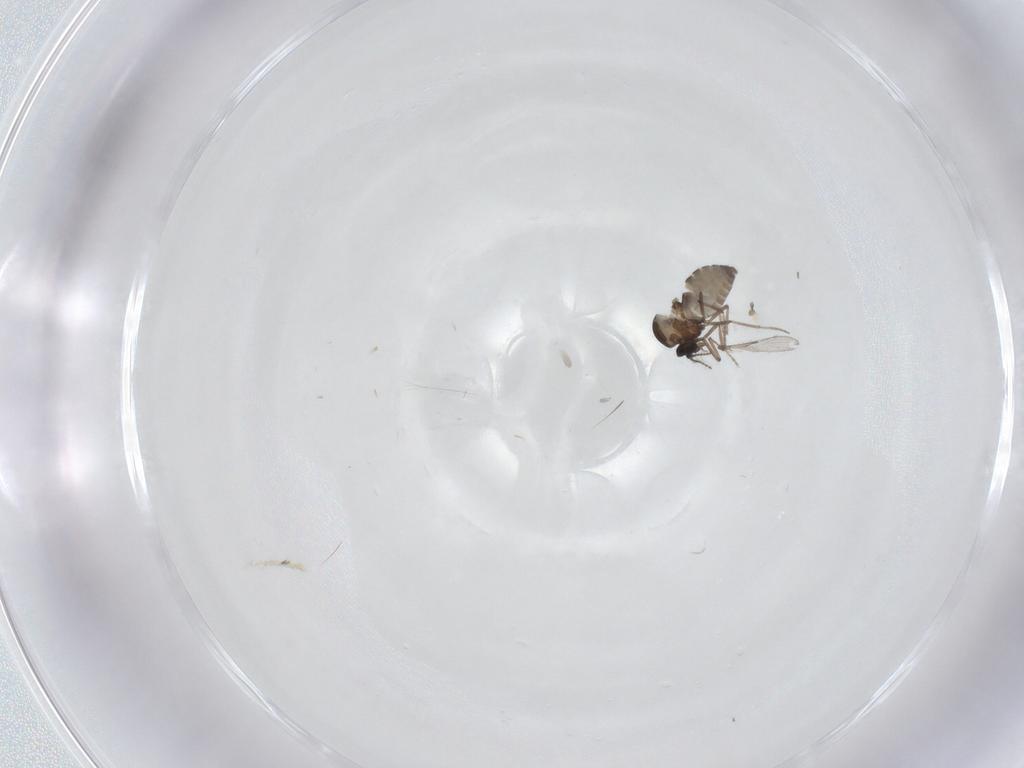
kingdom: Animalia
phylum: Arthropoda
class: Insecta
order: Diptera
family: Ceratopogonidae
